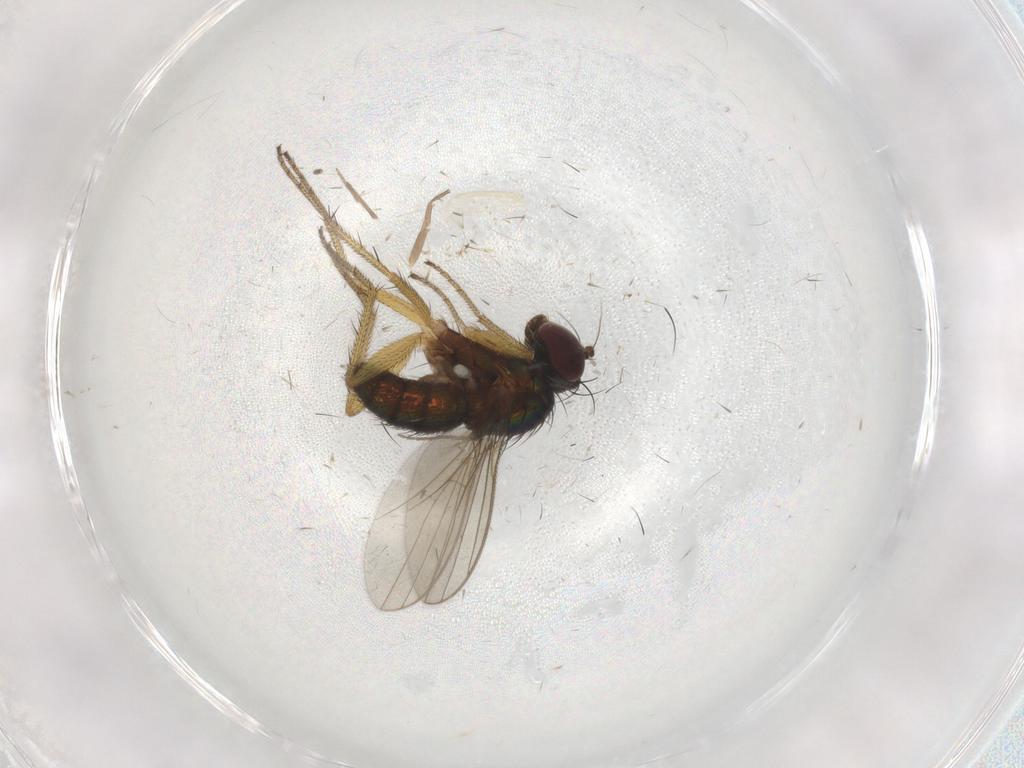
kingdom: Animalia
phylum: Arthropoda
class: Insecta
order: Diptera
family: Dolichopodidae
